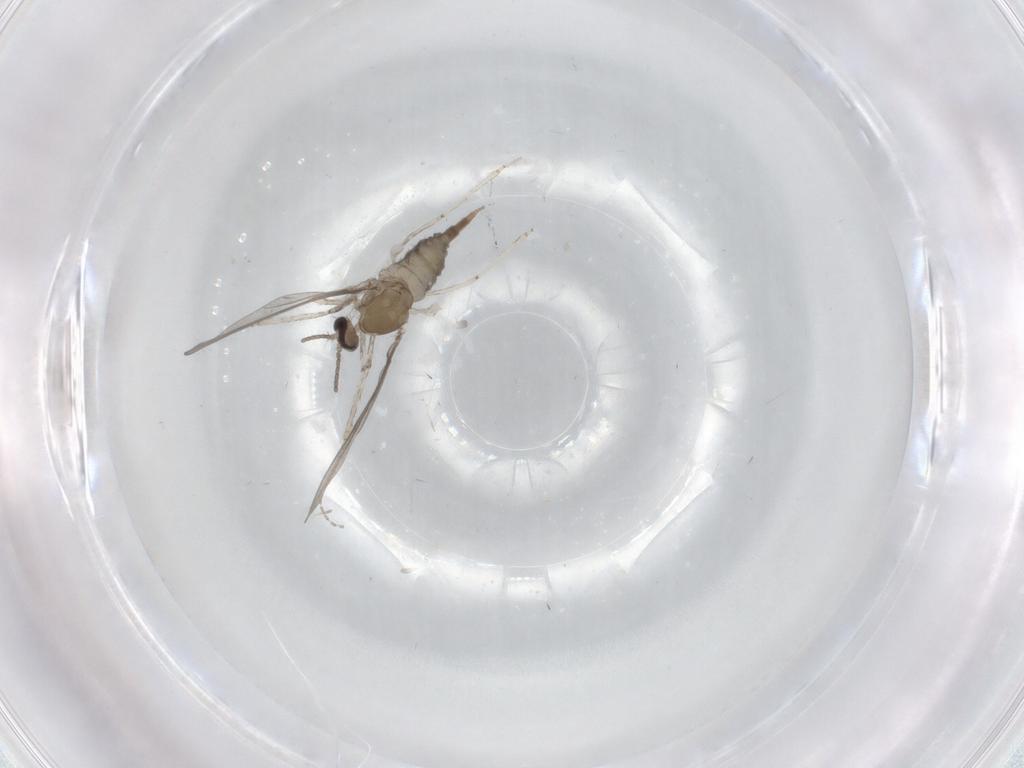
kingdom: Animalia
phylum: Arthropoda
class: Insecta
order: Diptera
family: Cecidomyiidae
